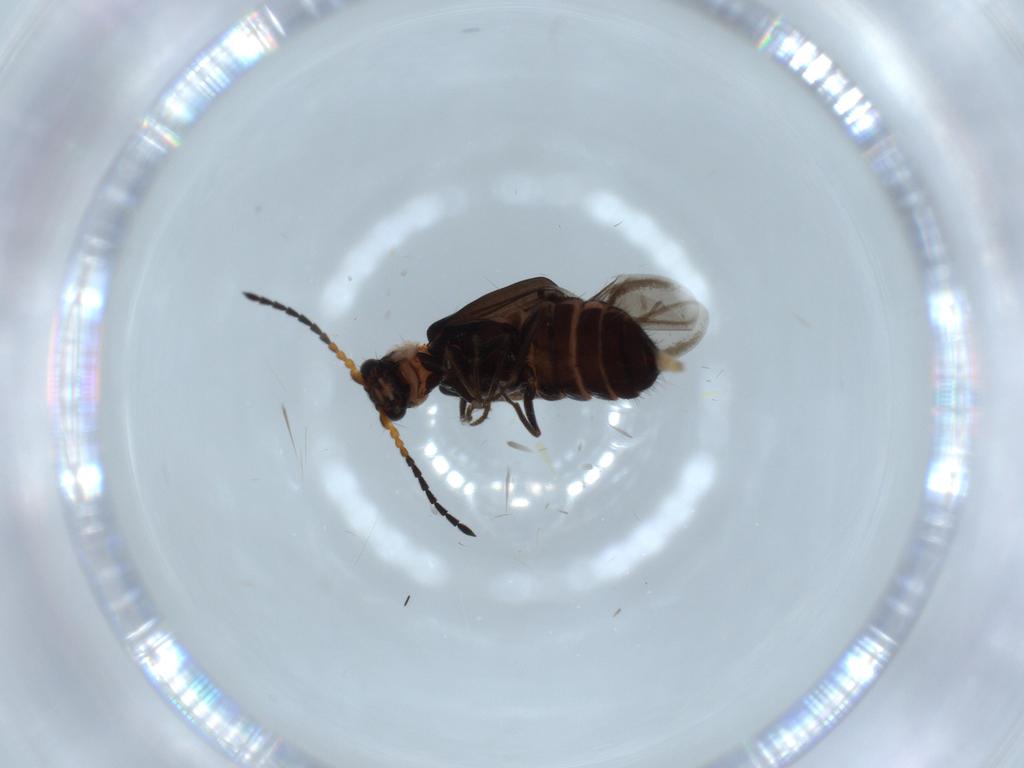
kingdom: Animalia
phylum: Arthropoda
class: Insecta
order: Coleoptera
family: Melyridae
